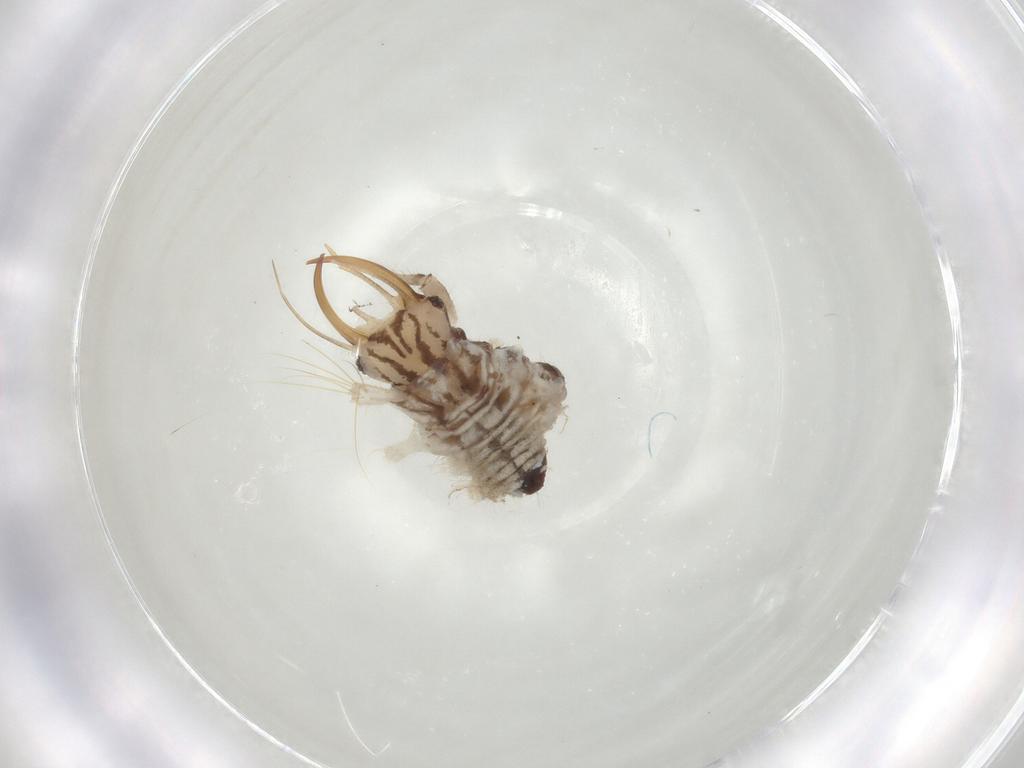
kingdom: Animalia
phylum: Arthropoda
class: Insecta
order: Neuroptera
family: Chrysopidae
